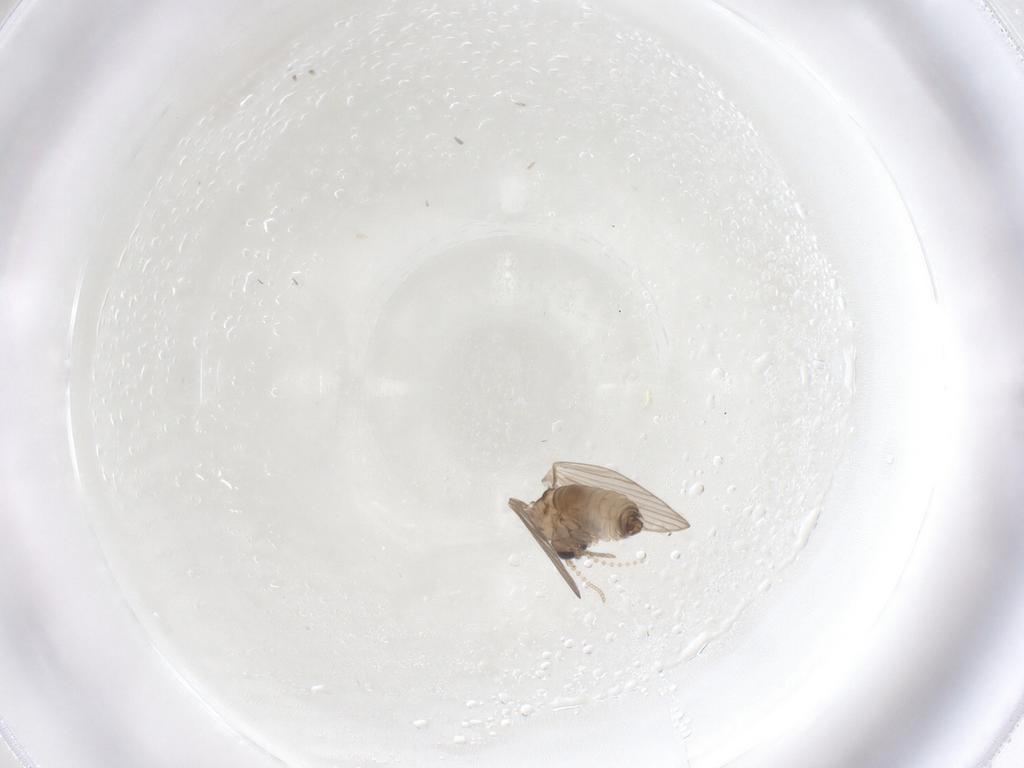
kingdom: Animalia
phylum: Arthropoda
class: Insecta
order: Diptera
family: Psychodidae
